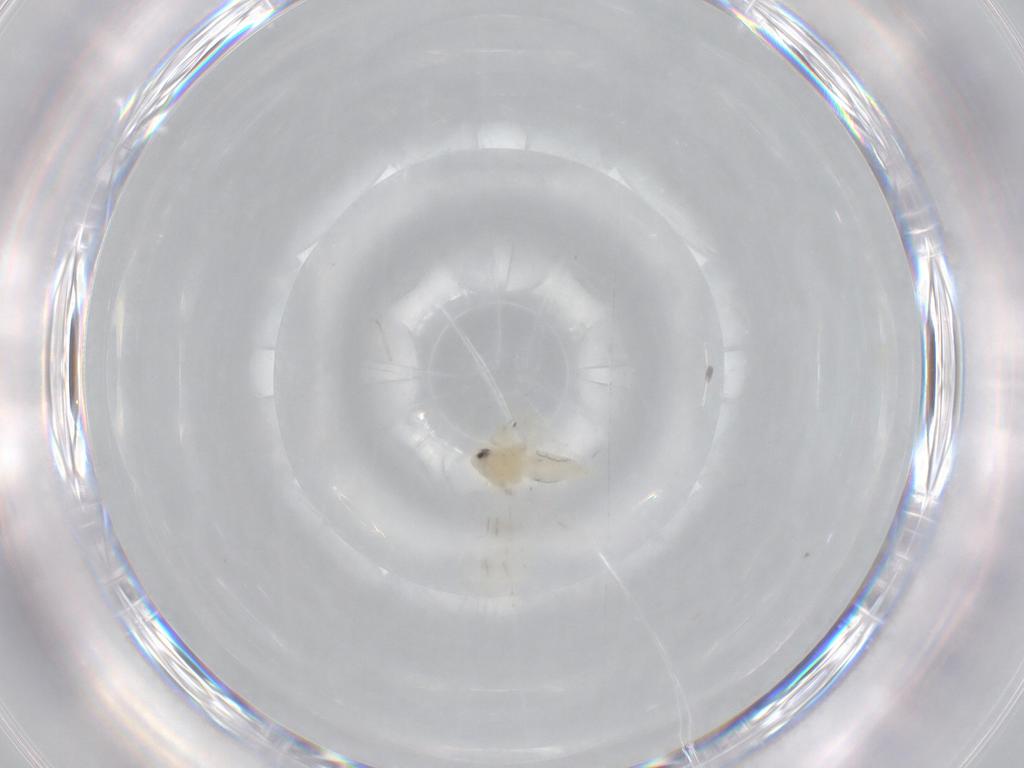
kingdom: Animalia
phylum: Arthropoda
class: Insecta
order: Hemiptera
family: Aleyrodidae
